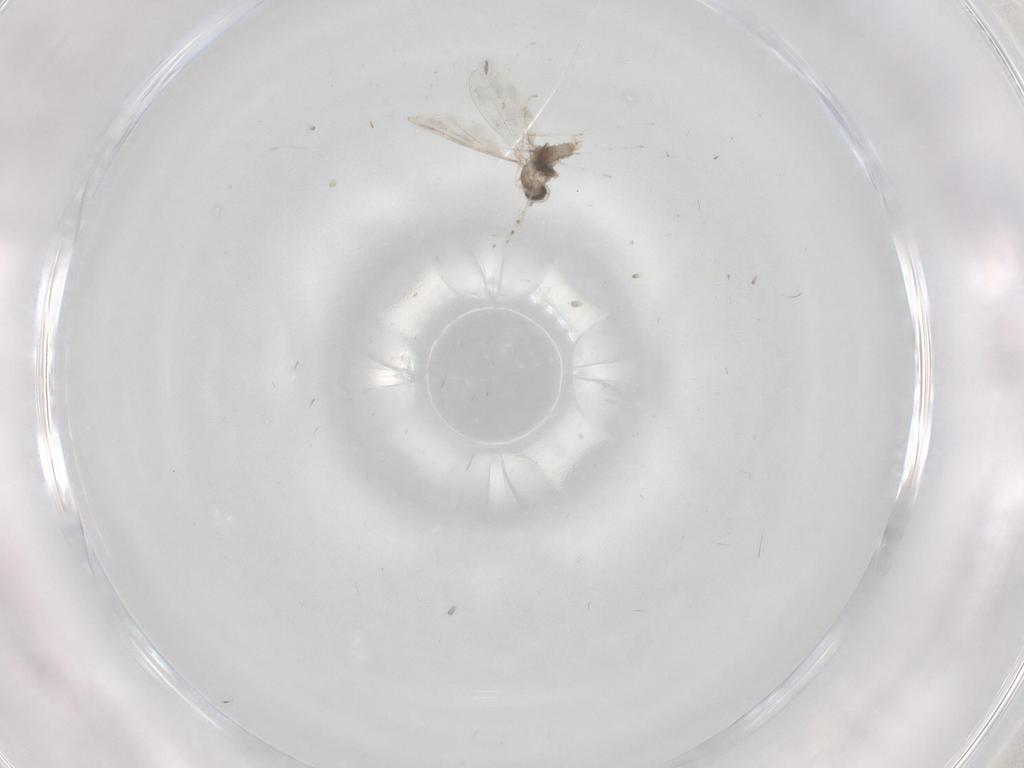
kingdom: Animalia
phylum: Arthropoda
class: Insecta
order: Diptera
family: Cecidomyiidae
